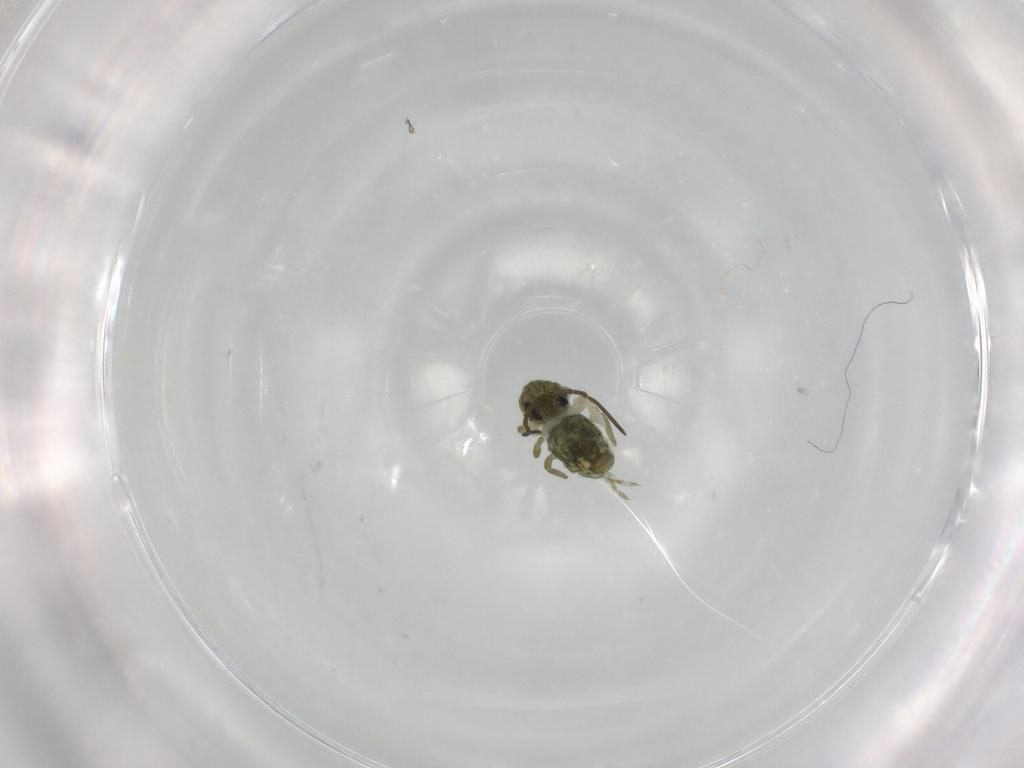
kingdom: Animalia
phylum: Arthropoda
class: Collembola
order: Symphypleona
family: Sminthuridae
